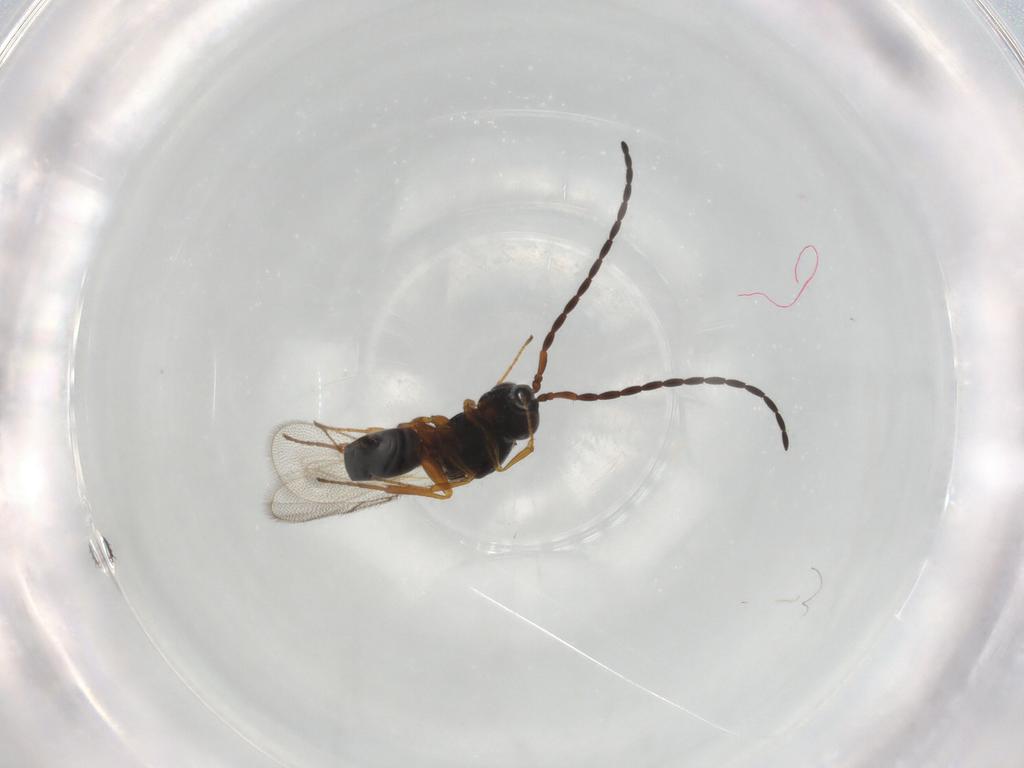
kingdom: Animalia
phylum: Arthropoda
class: Insecta
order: Hymenoptera
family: Figitidae
